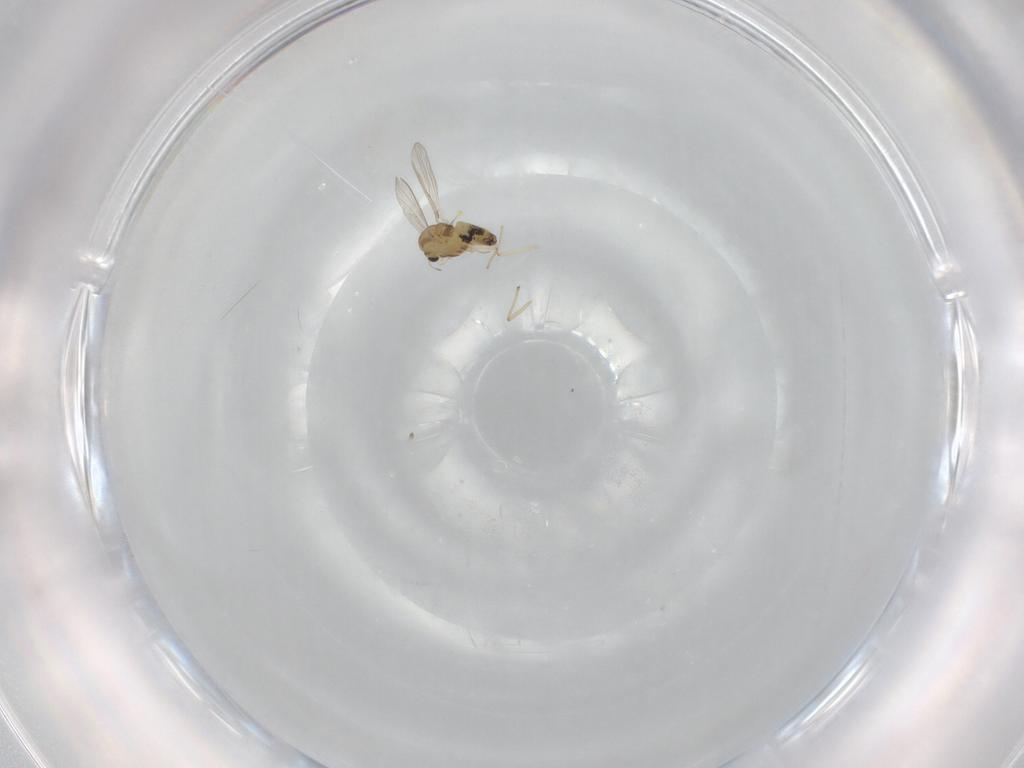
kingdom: Animalia
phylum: Arthropoda
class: Insecta
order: Diptera
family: Chironomidae
